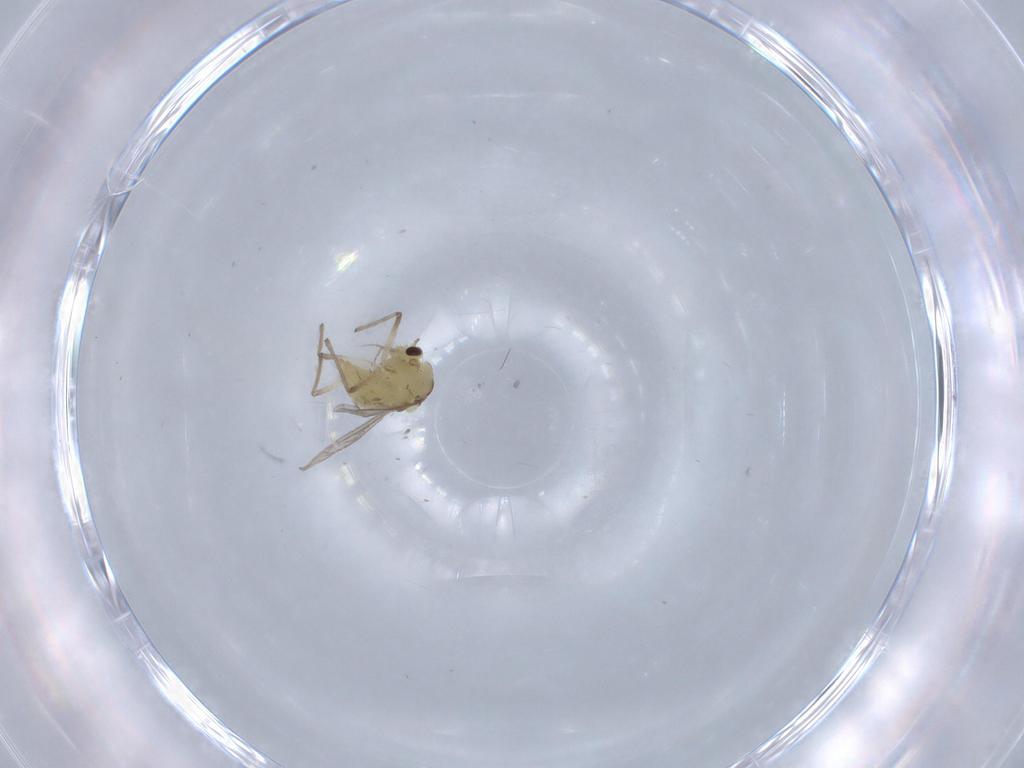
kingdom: Animalia
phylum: Arthropoda
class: Insecta
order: Diptera
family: Chironomidae
